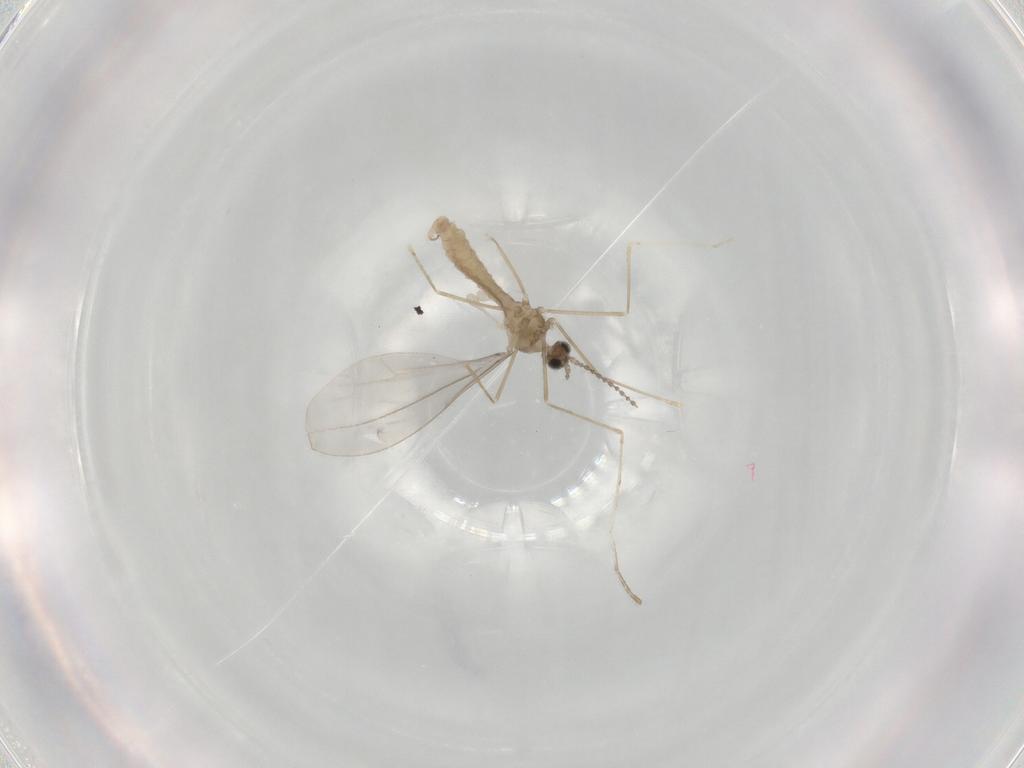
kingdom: Animalia
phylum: Arthropoda
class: Insecta
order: Diptera
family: Cecidomyiidae
